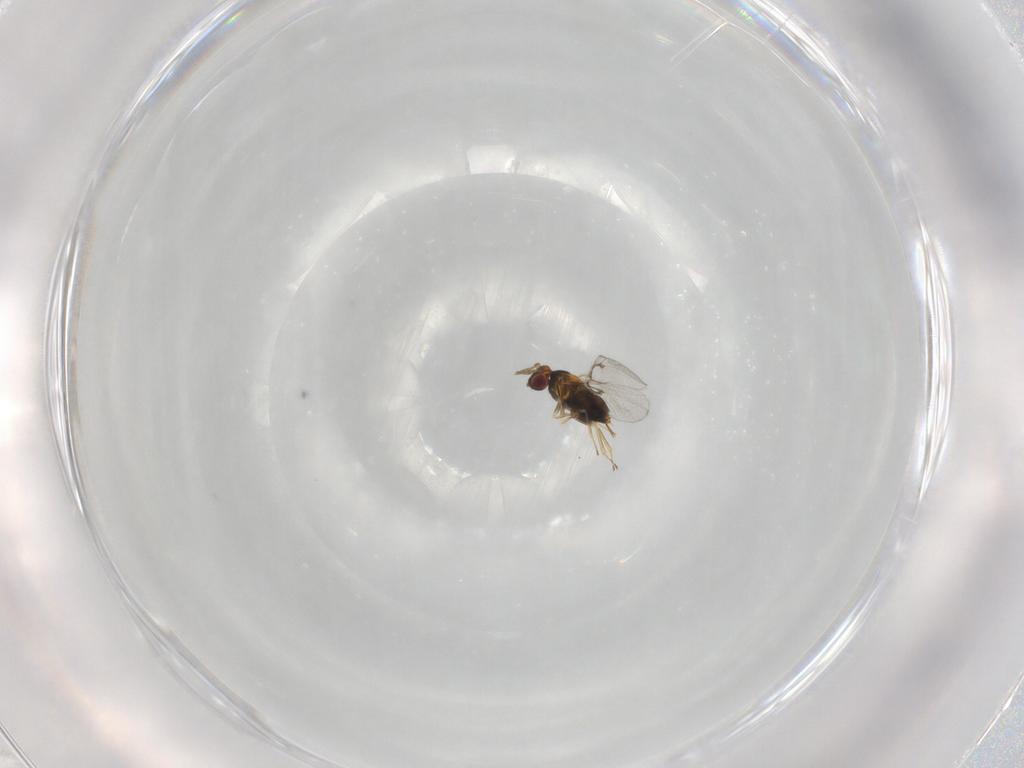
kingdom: Animalia
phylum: Arthropoda
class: Insecta
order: Hymenoptera
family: Trichogrammatidae
